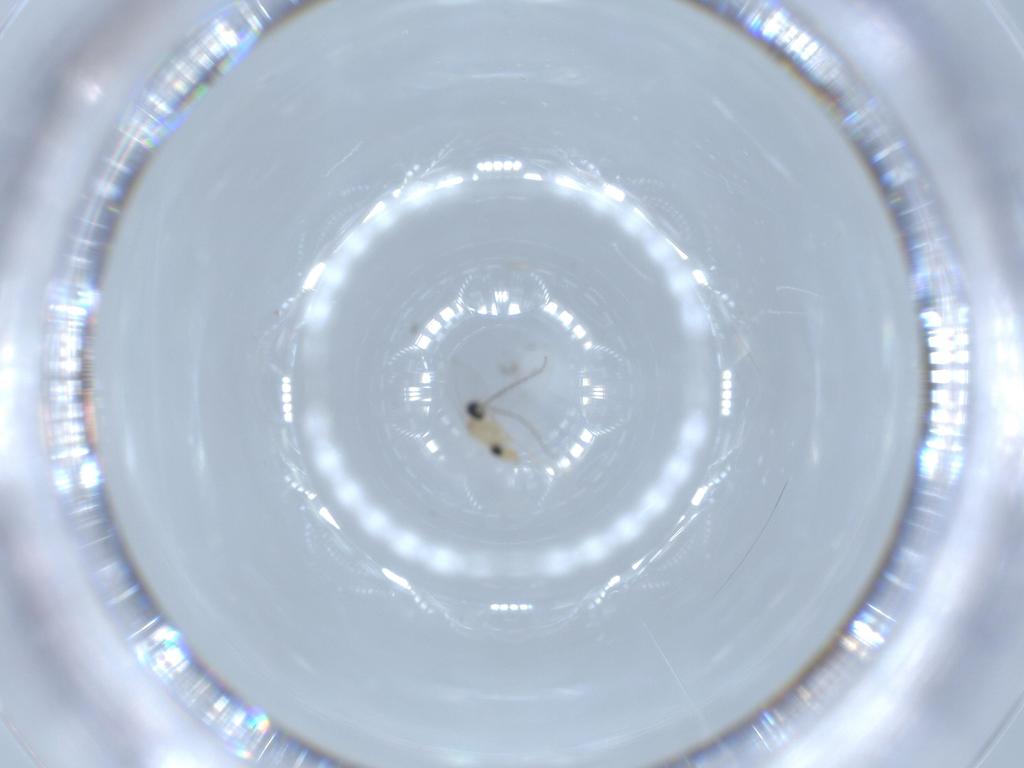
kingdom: Animalia
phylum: Arthropoda
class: Insecta
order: Diptera
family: Cecidomyiidae
